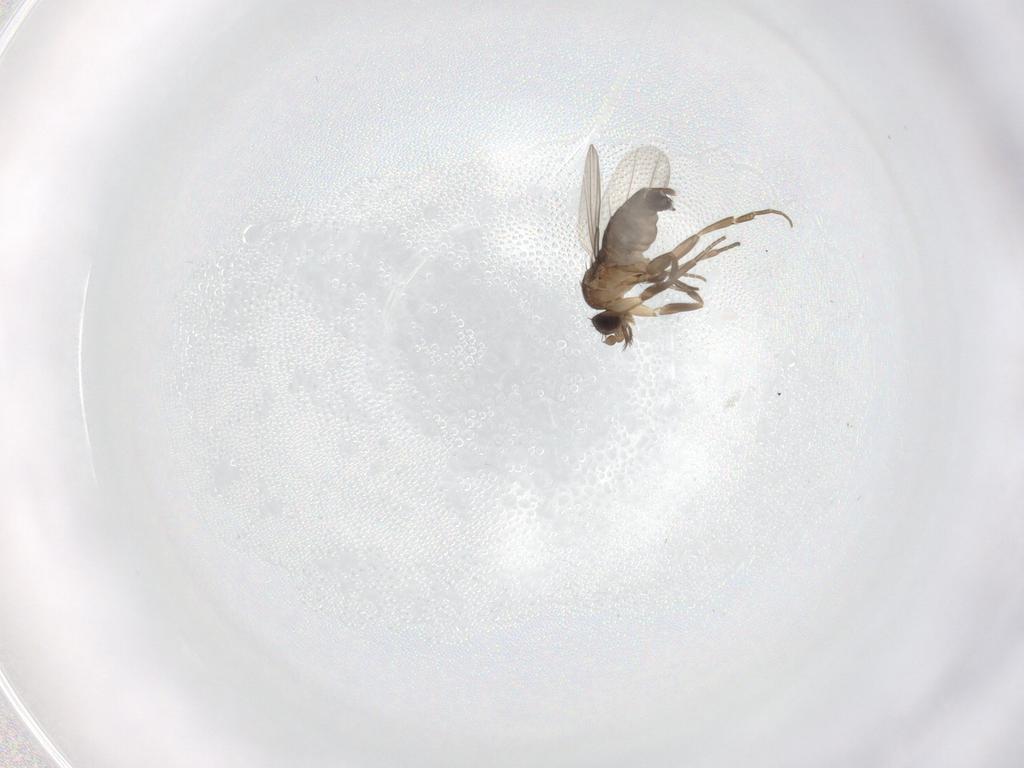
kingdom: Animalia
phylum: Arthropoda
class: Insecta
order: Diptera
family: Phoridae
